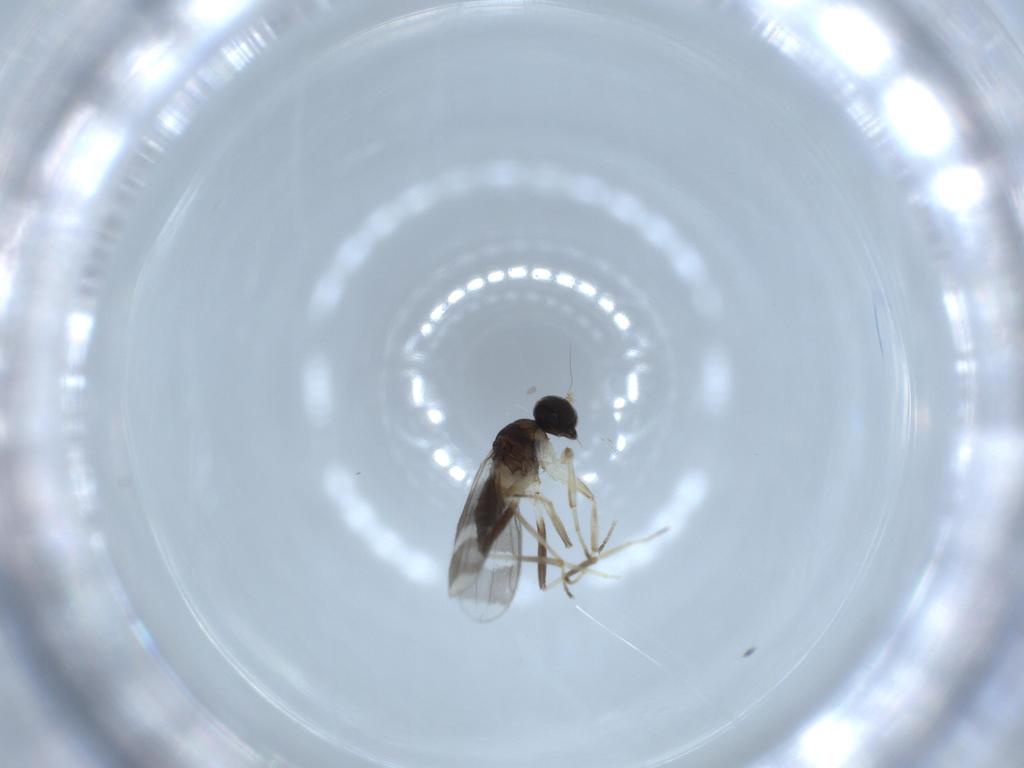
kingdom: Animalia
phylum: Arthropoda
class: Insecta
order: Diptera
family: Hybotidae
